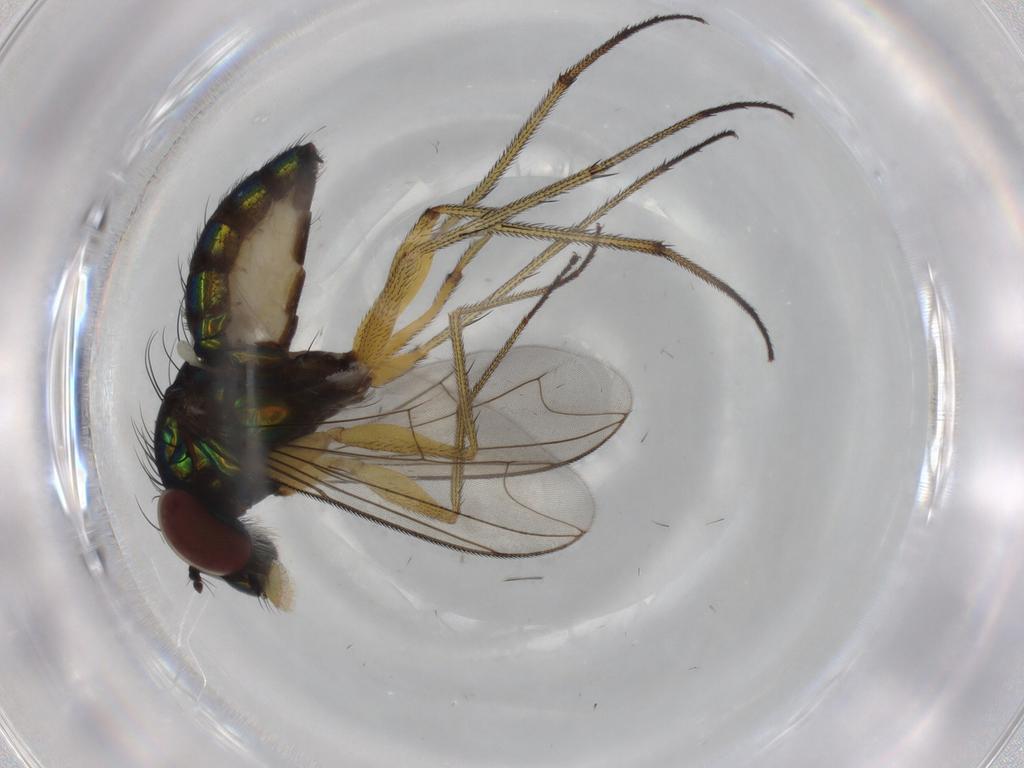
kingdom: Animalia
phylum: Arthropoda
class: Insecta
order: Diptera
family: Dolichopodidae
